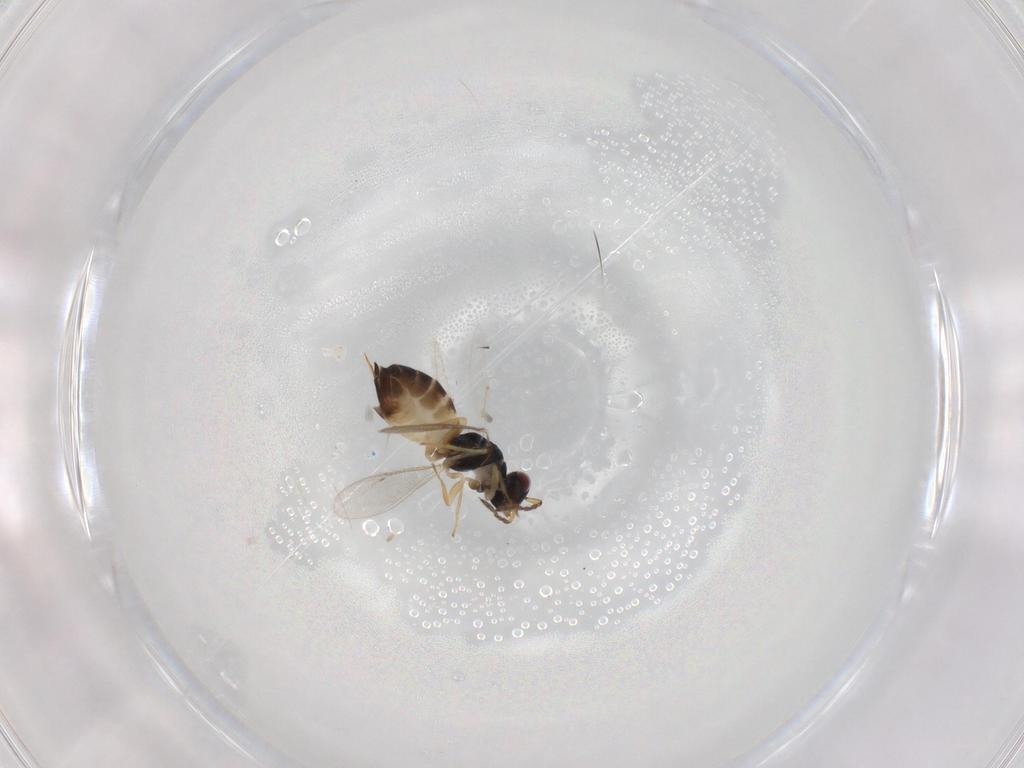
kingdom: Animalia
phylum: Arthropoda
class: Insecta
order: Hymenoptera
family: Eulophidae
